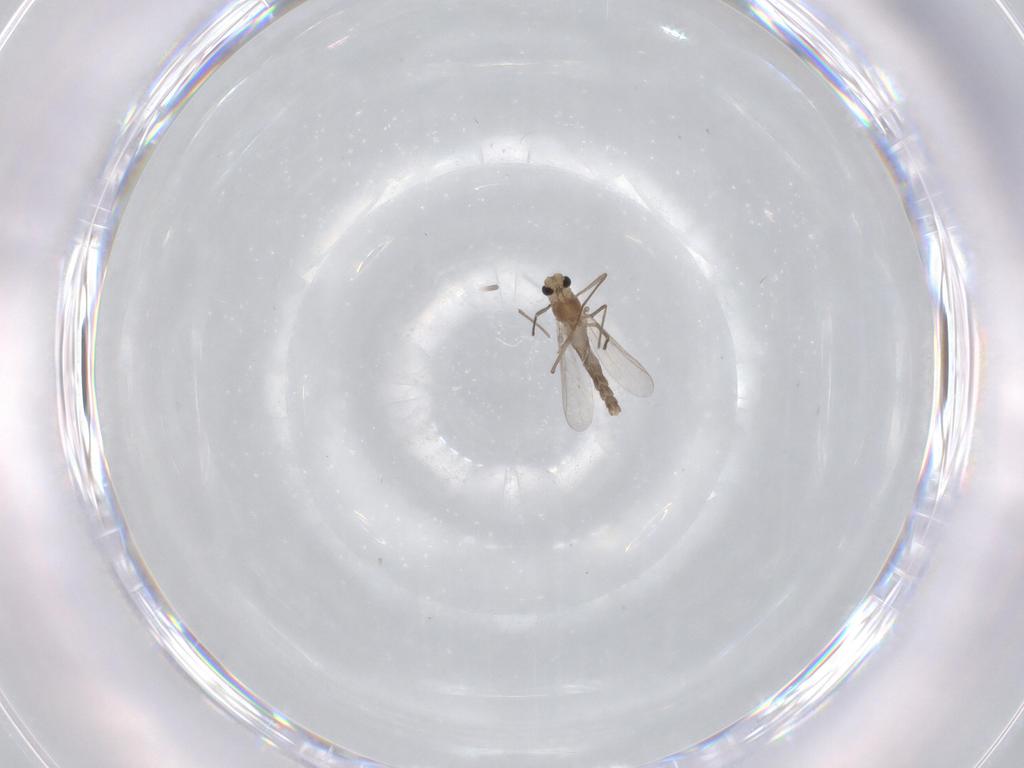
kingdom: Animalia
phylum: Arthropoda
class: Insecta
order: Diptera
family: Chironomidae
